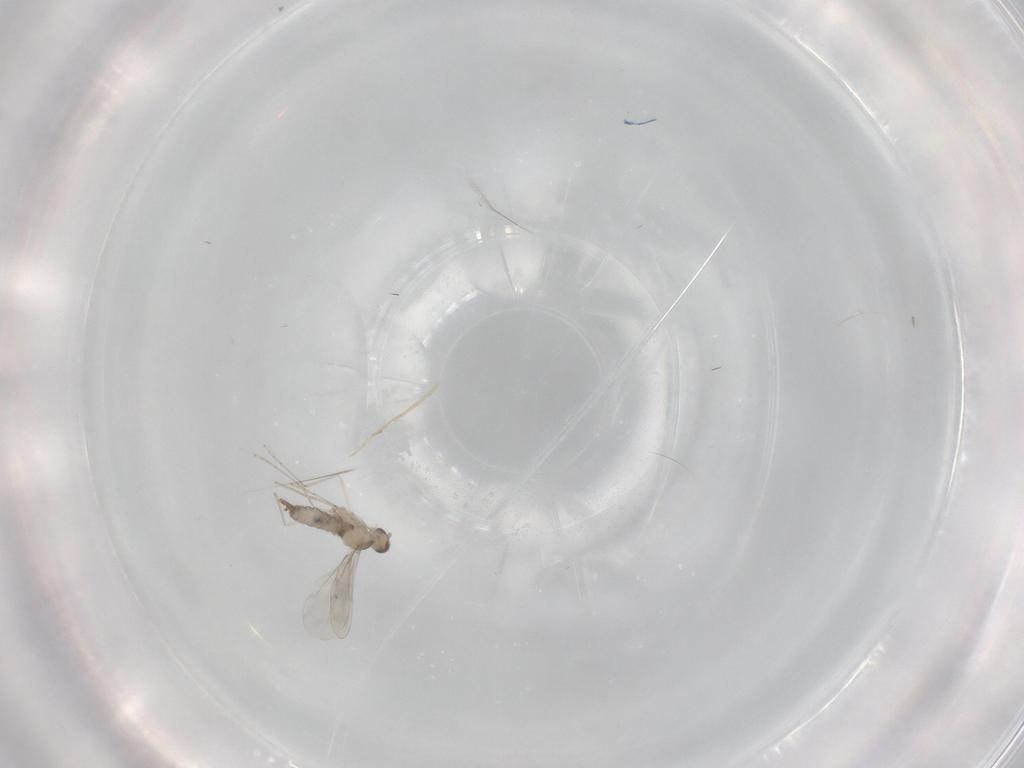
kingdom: Animalia
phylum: Arthropoda
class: Insecta
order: Diptera
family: Cecidomyiidae
